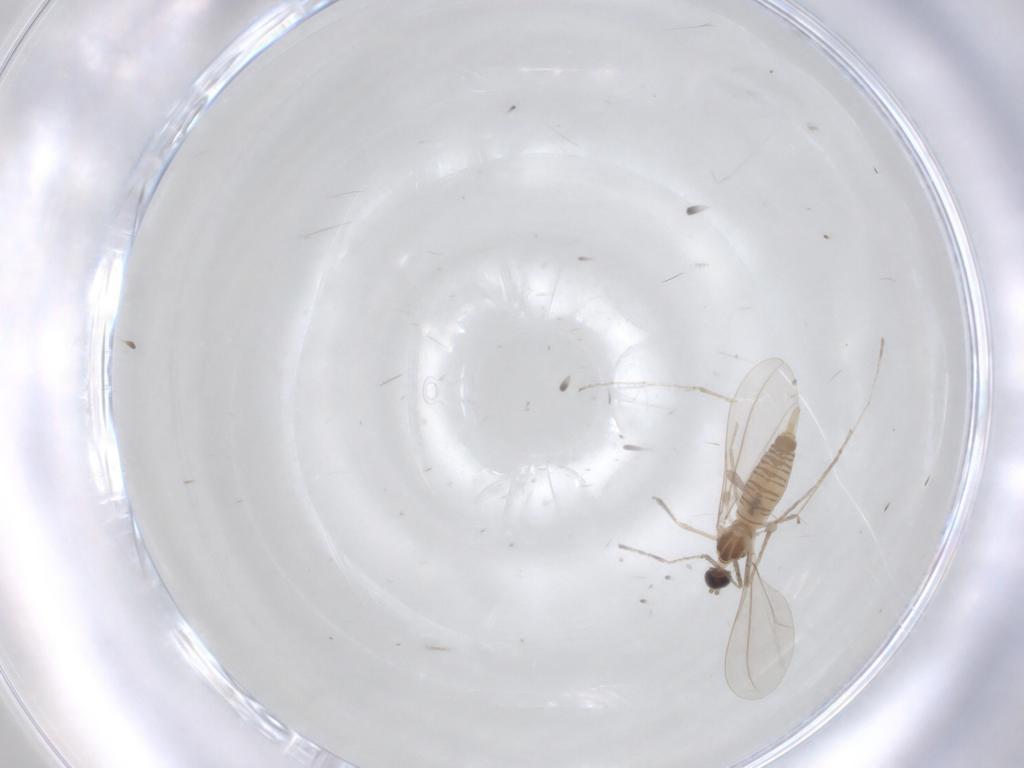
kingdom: Animalia
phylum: Arthropoda
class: Insecta
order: Diptera
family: Cecidomyiidae
